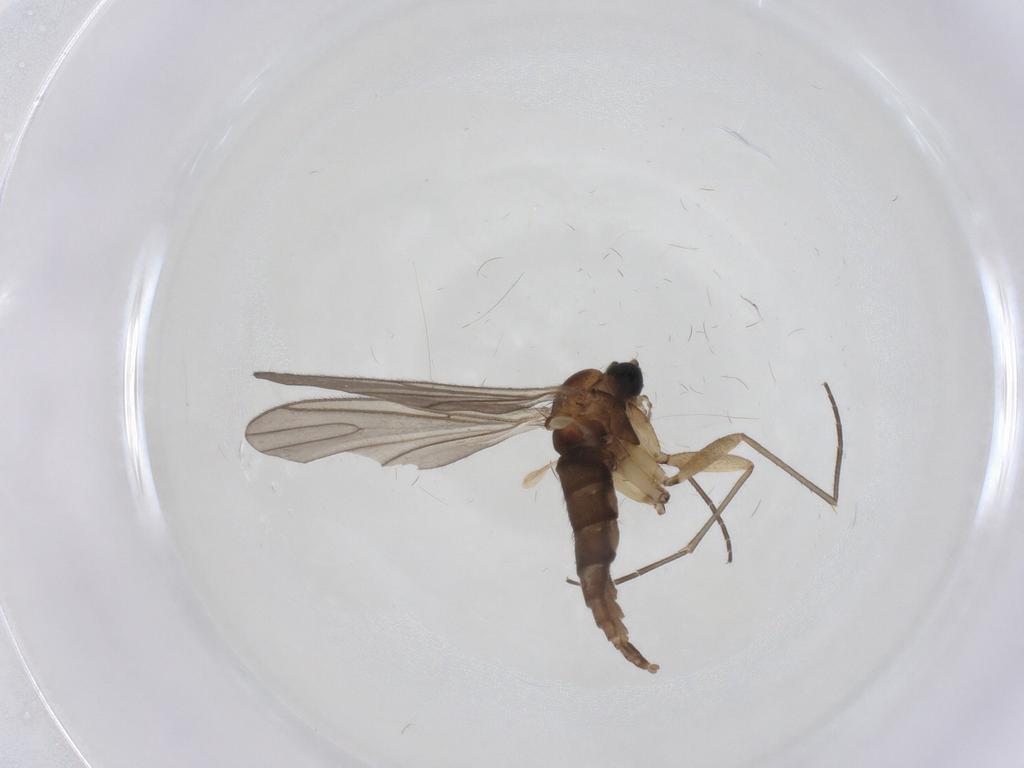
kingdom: Animalia
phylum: Arthropoda
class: Insecta
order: Diptera
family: Sciaridae
